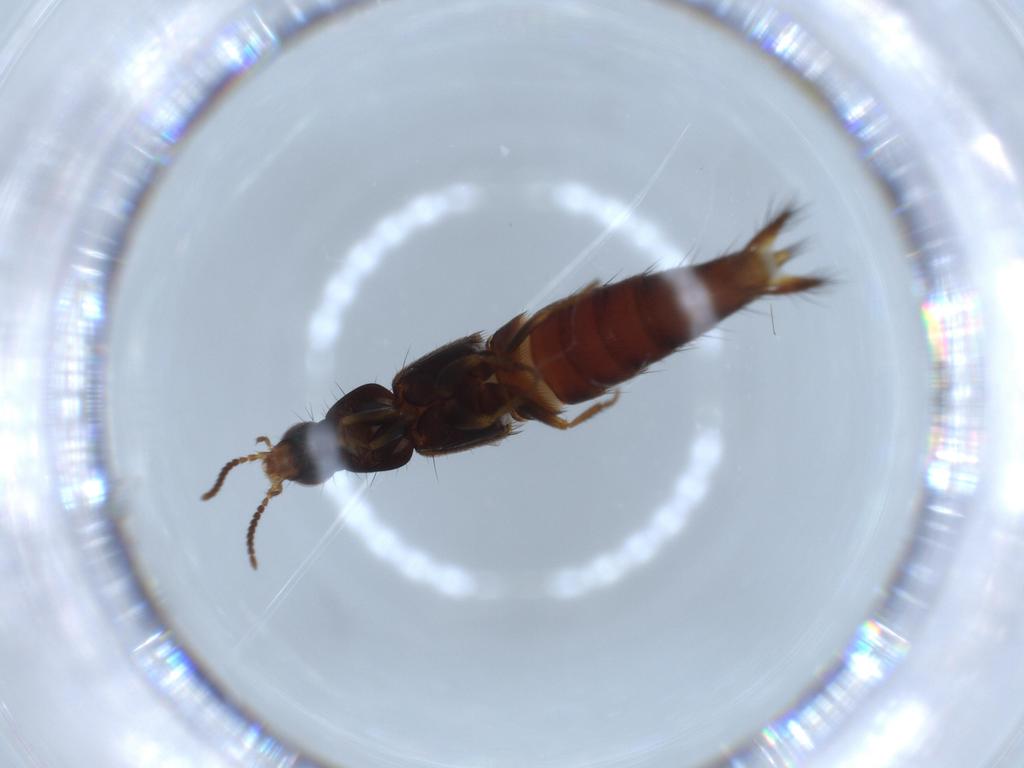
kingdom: Animalia
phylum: Arthropoda
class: Insecta
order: Coleoptera
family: Staphylinidae
